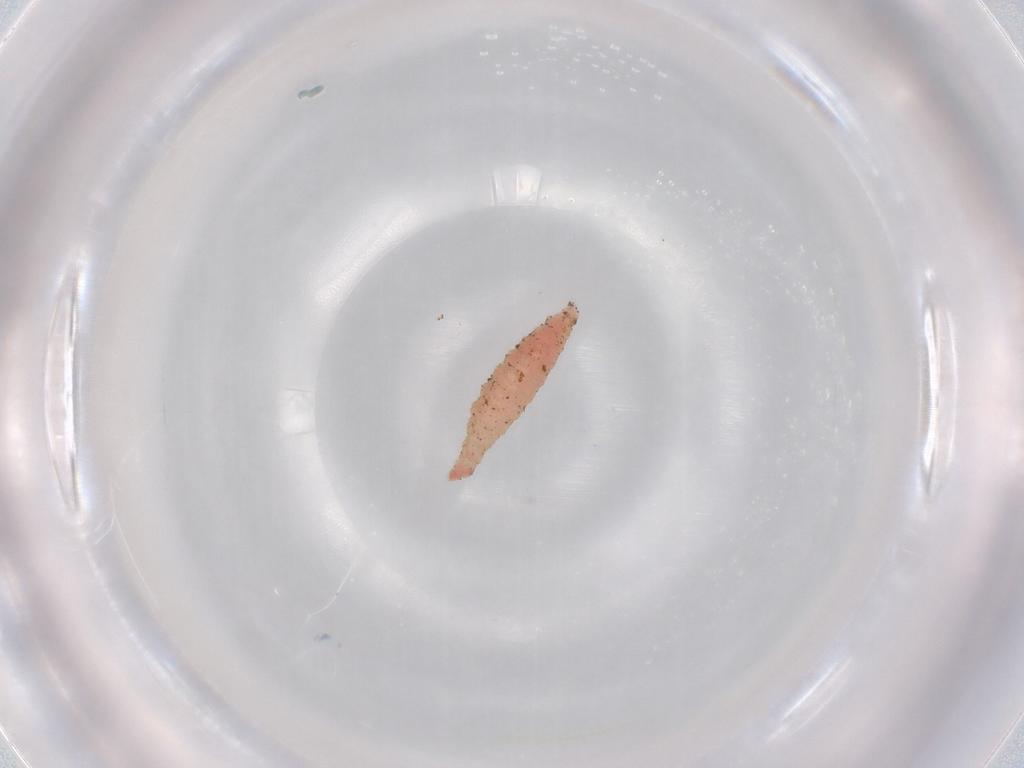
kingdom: Animalia
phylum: Arthropoda
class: Insecta
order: Diptera
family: Cecidomyiidae
